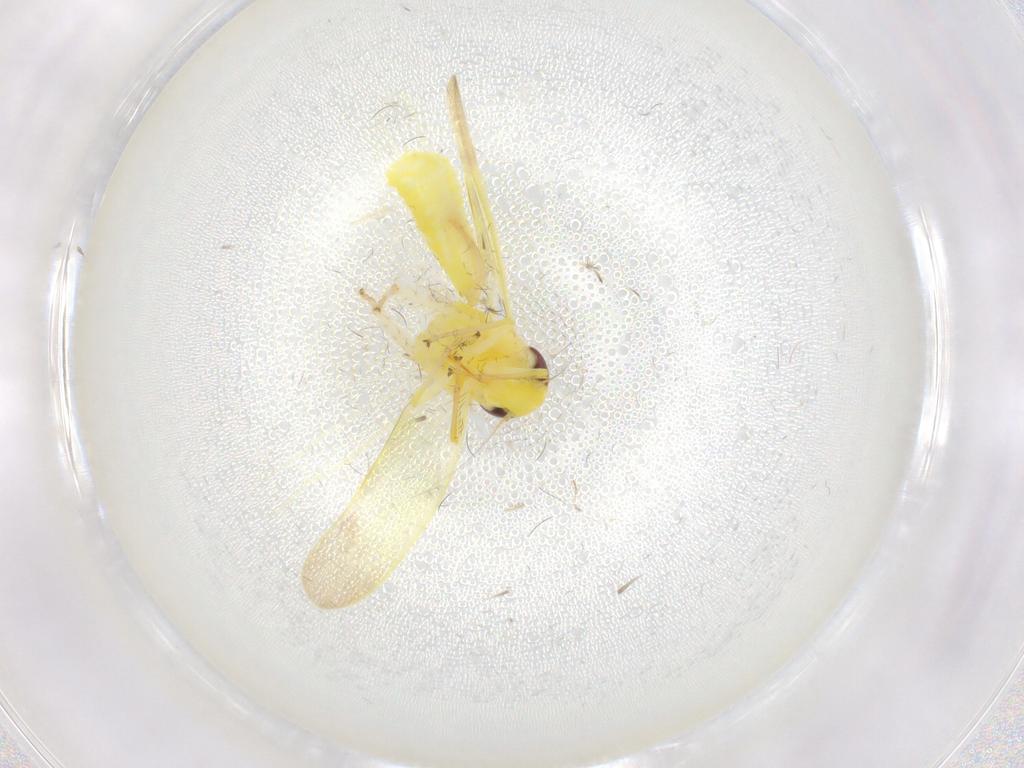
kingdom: Animalia
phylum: Arthropoda
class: Insecta
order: Hemiptera
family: Cicadellidae
